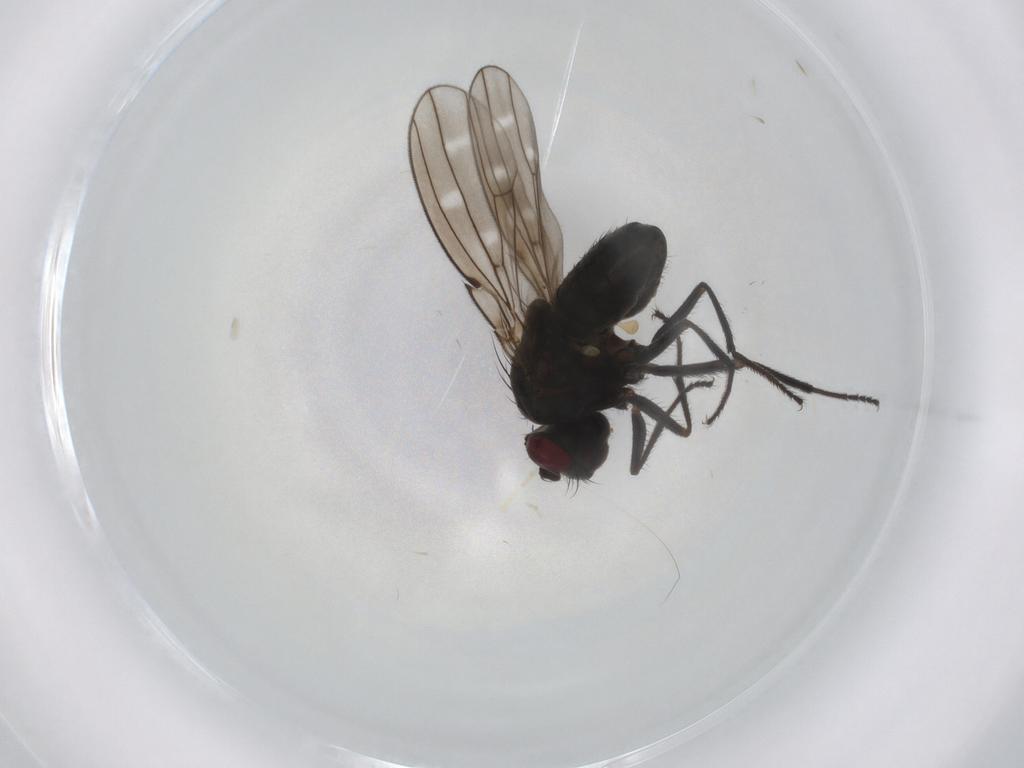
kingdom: Animalia
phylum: Arthropoda
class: Insecta
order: Diptera
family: Ephydridae
